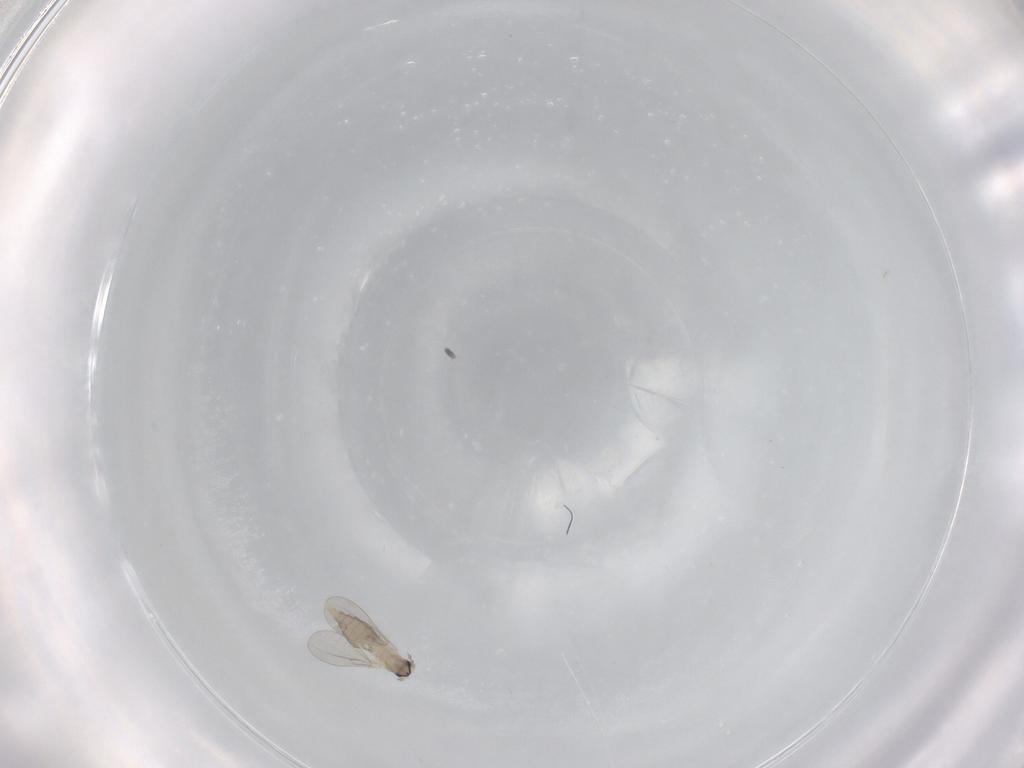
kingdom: Animalia
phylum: Arthropoda
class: Insecta
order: Diptera
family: Cecidomyiidae
